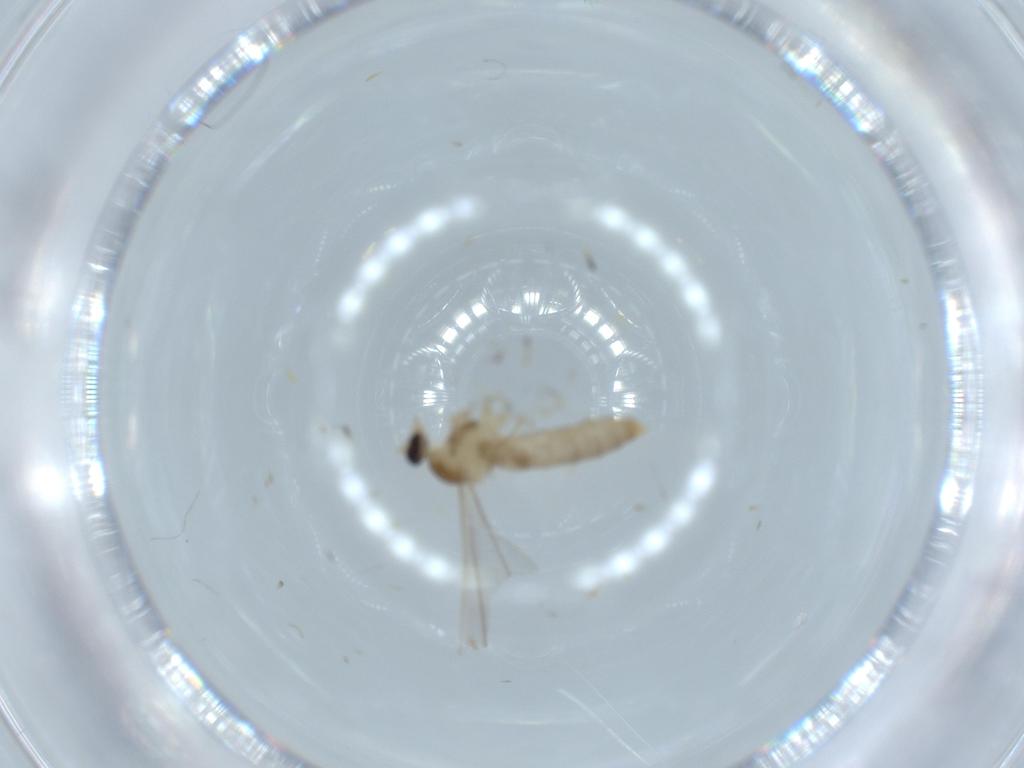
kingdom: Animalia
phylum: Arthropoda
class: Insecta
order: Diptera
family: Cecidomyiidae
